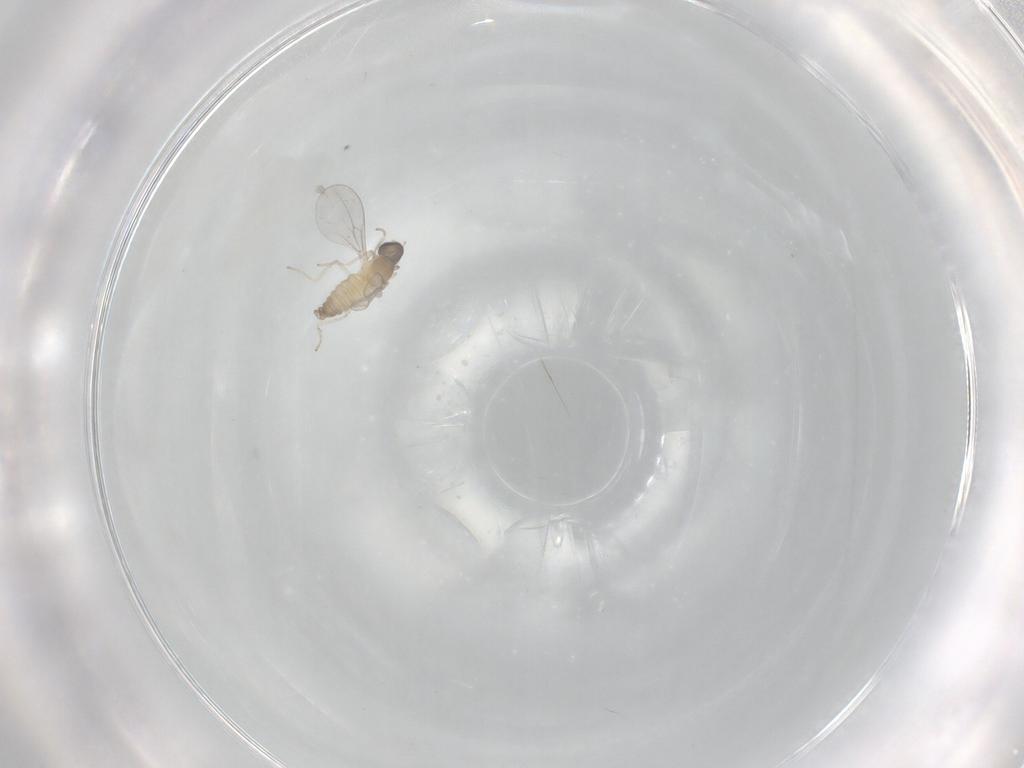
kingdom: Animalia
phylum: Arthropoda
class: Insecta
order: Diptera
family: Cecidomyiidae
